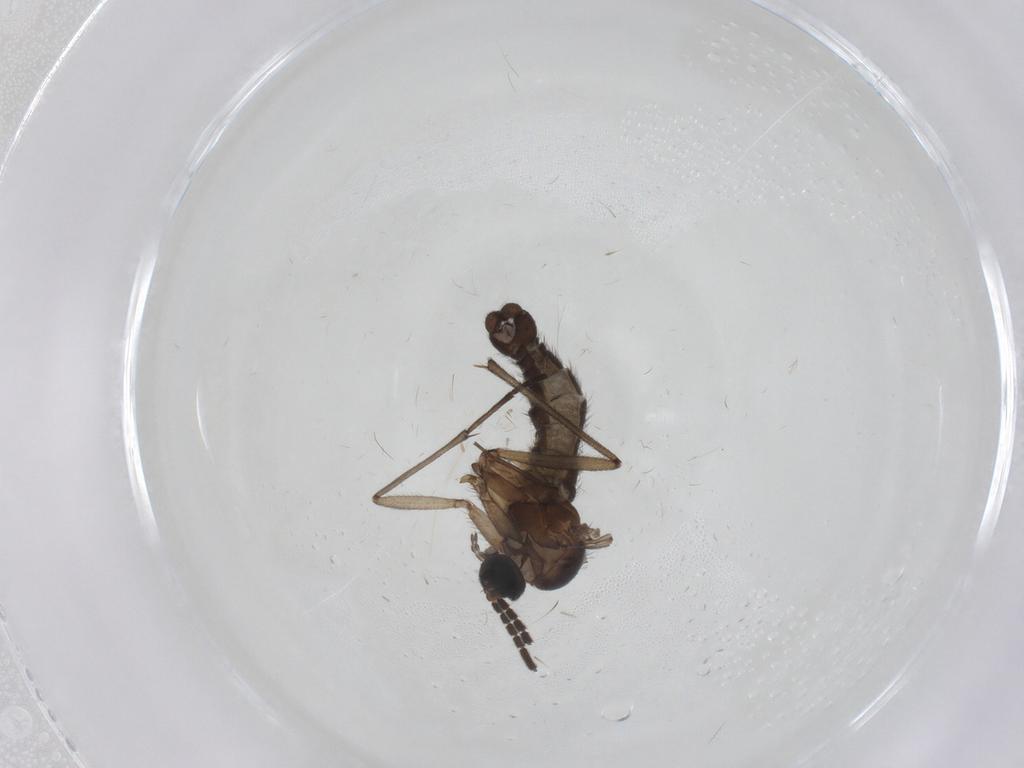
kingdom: Animalia
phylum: Arthropoda
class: Insecta
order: Diptera
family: Sciaridae
